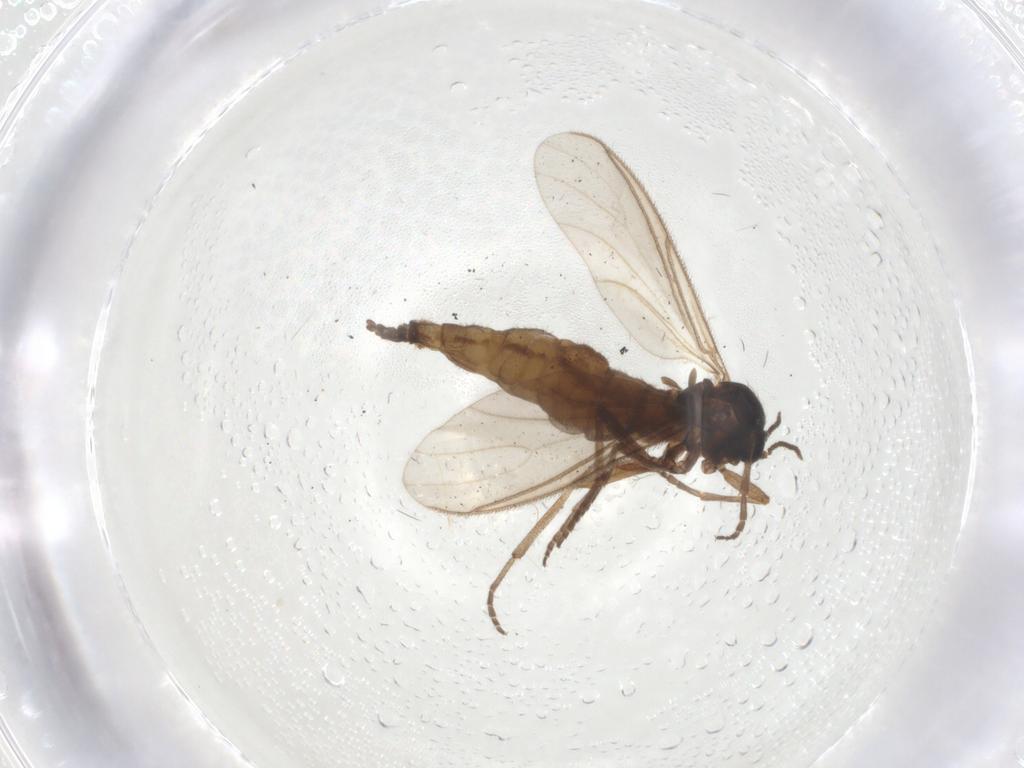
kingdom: Animalia
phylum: Arthropoda
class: Insecta
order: Diptera
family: Sciaridae
